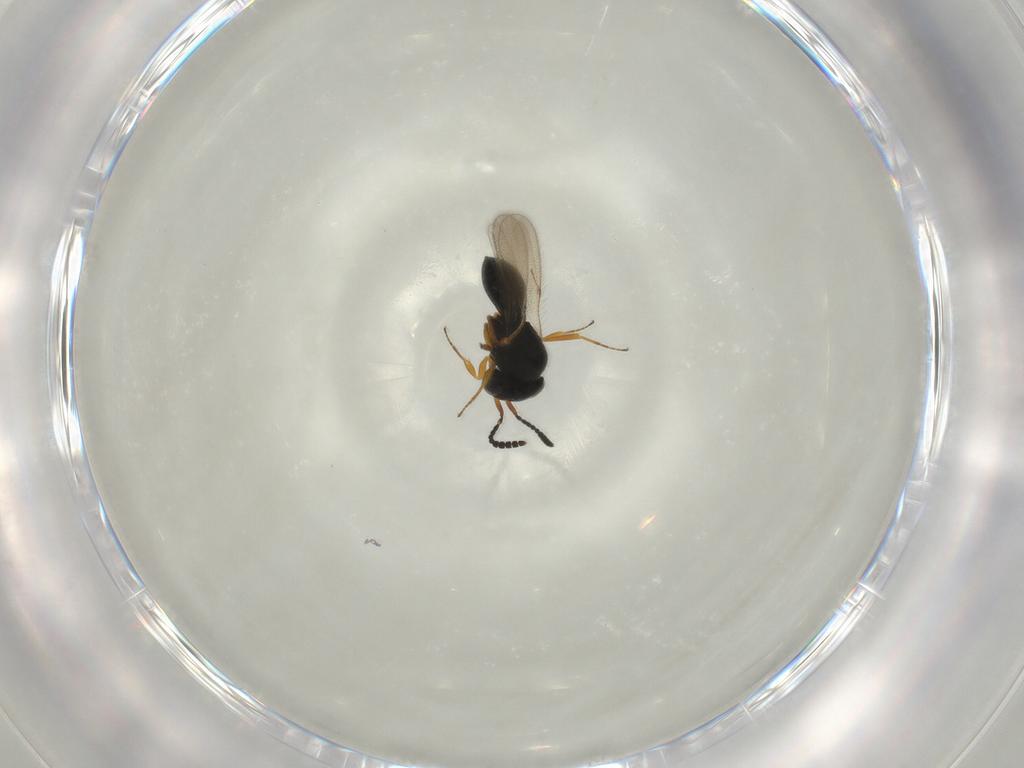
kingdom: Animalia
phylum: Arthropoda
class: Insecta
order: Hymenoptera
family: Scelionidae
